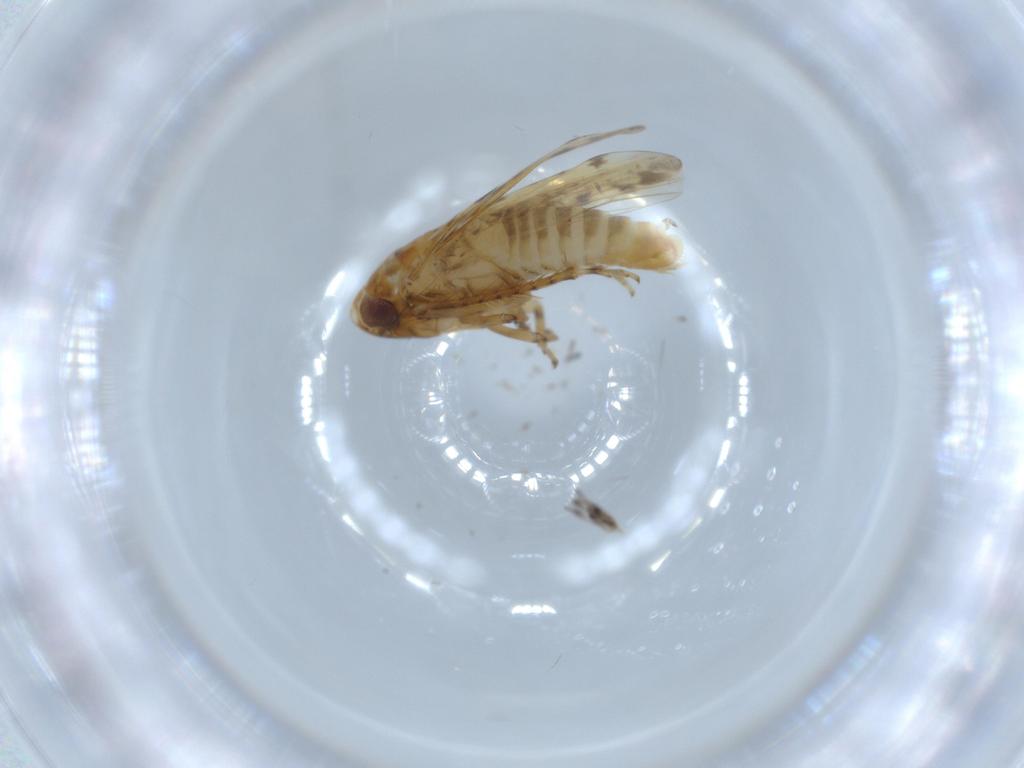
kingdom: Animalia
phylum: Arthropoda
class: Insecta
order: Hemiptera
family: Cicadellidae
